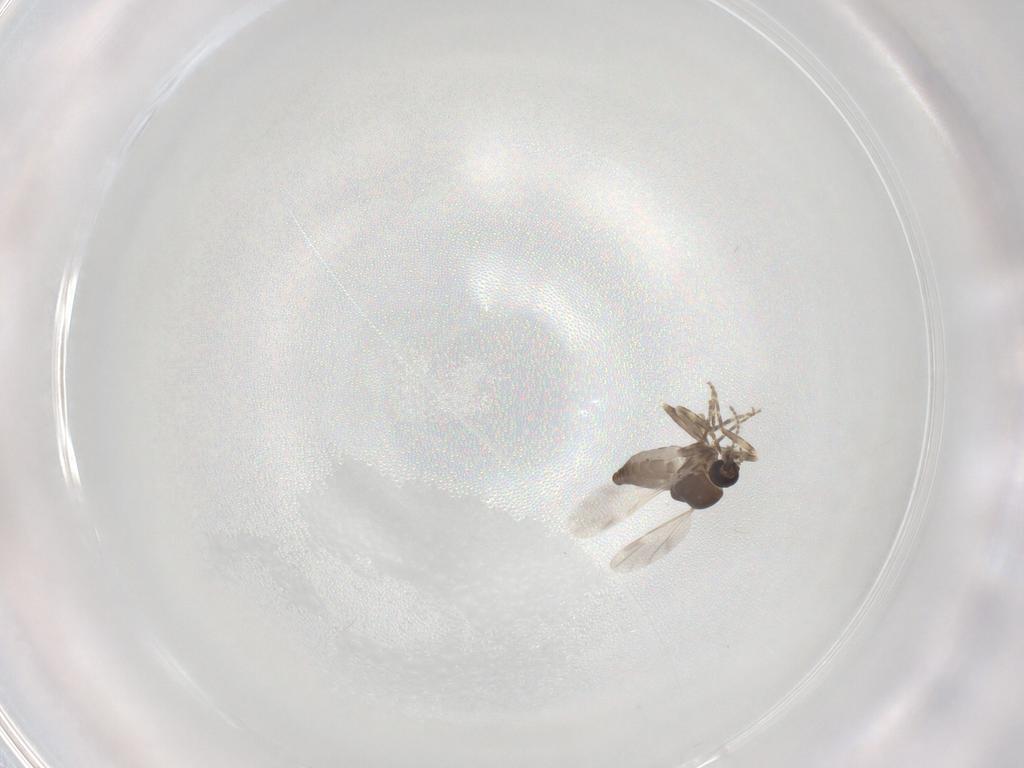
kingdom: Animalia
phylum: Arthropoda
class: Insecta
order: Diptera
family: Ceratopogonidae
